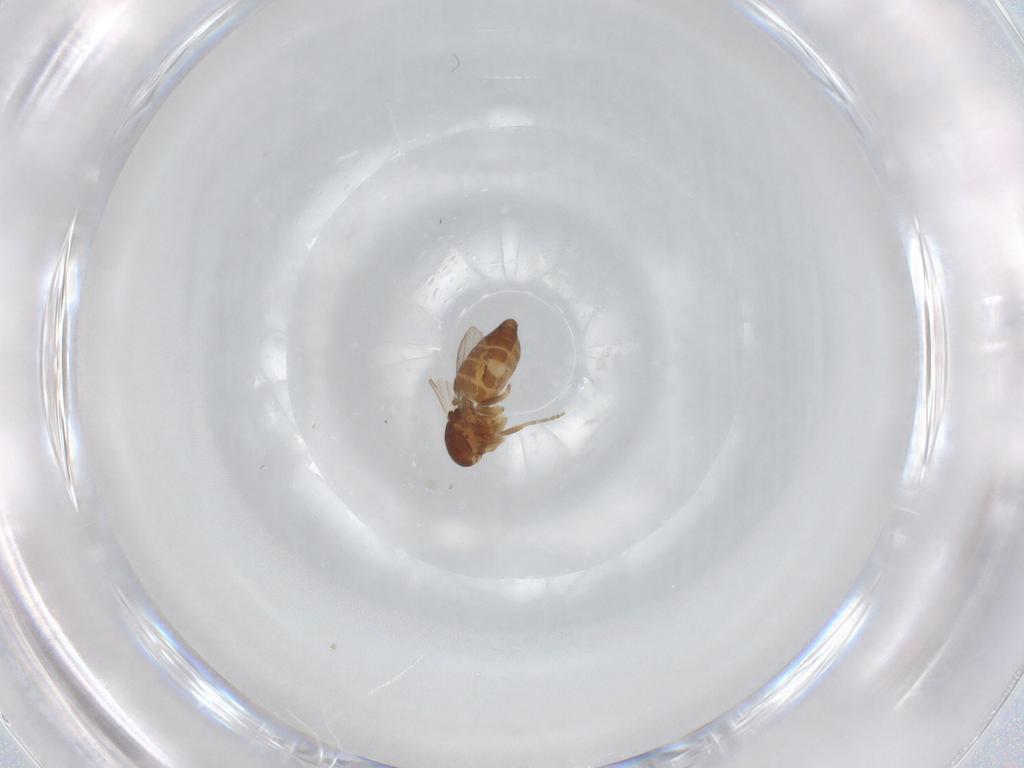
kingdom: Animalia
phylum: Arthropoda
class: Insecta
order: Diptera
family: Ceratopogonidae
